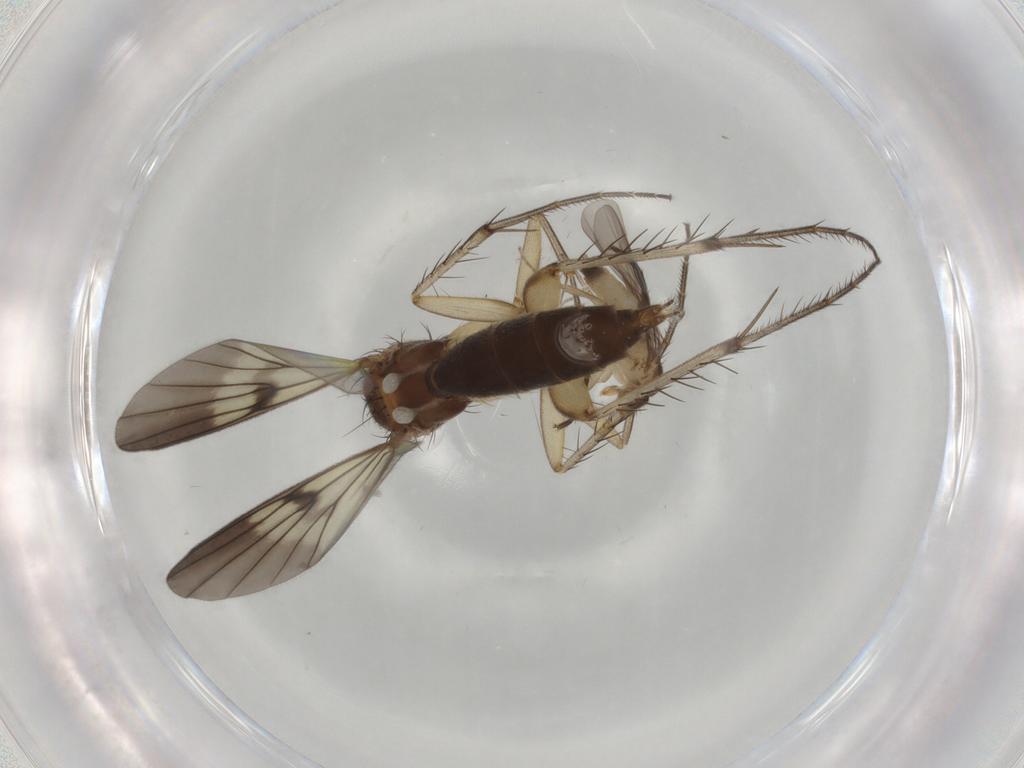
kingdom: Animalia
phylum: Arthropoda
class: Insecta
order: Diptera
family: Phoridae
